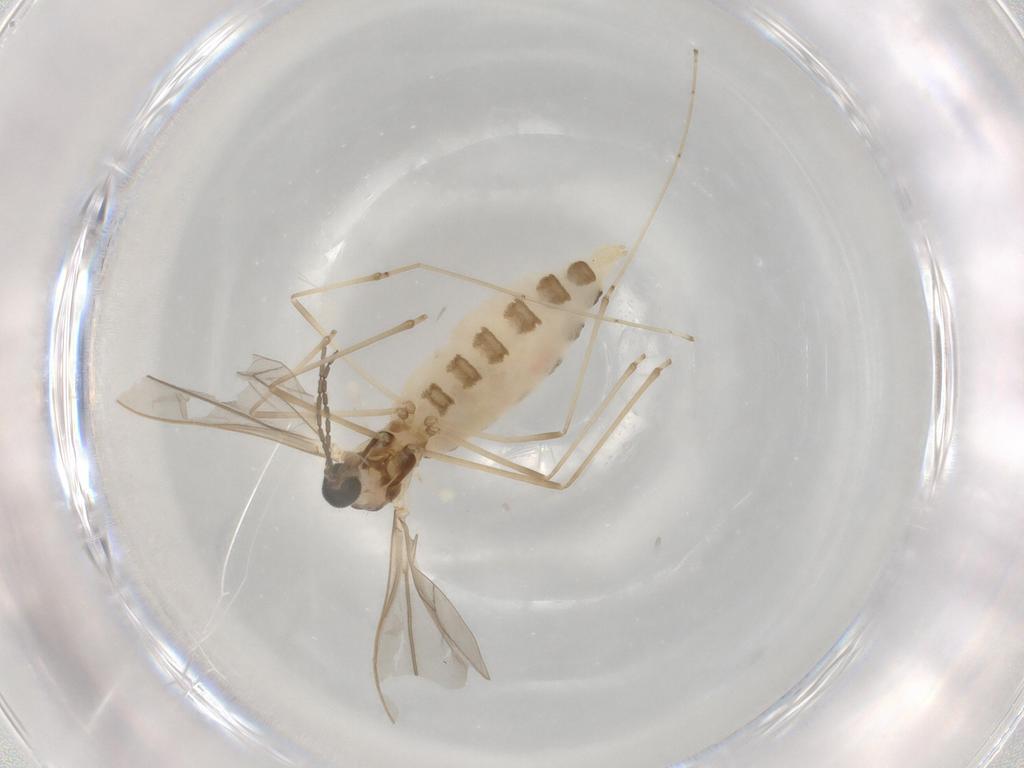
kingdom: Animalia
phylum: Arthropoda
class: Insecta
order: Diptera
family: Cecidomyiidae
